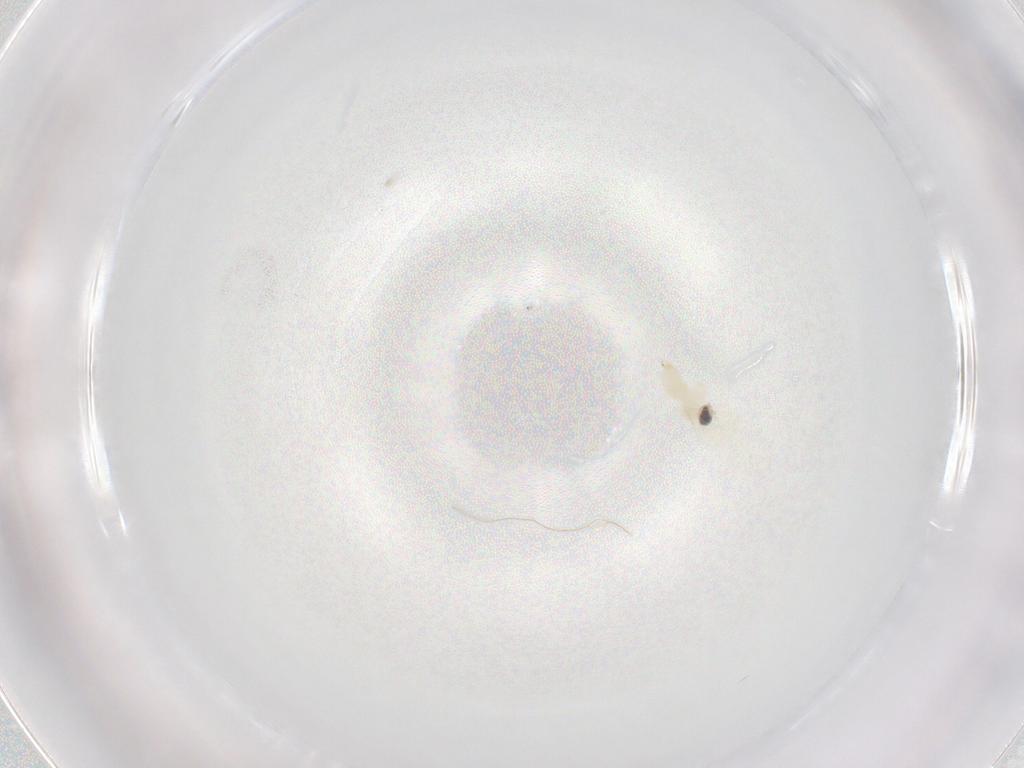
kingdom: Animalia
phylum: Arthropoda
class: Insecta
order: Diptera
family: Cecidomyiidae
